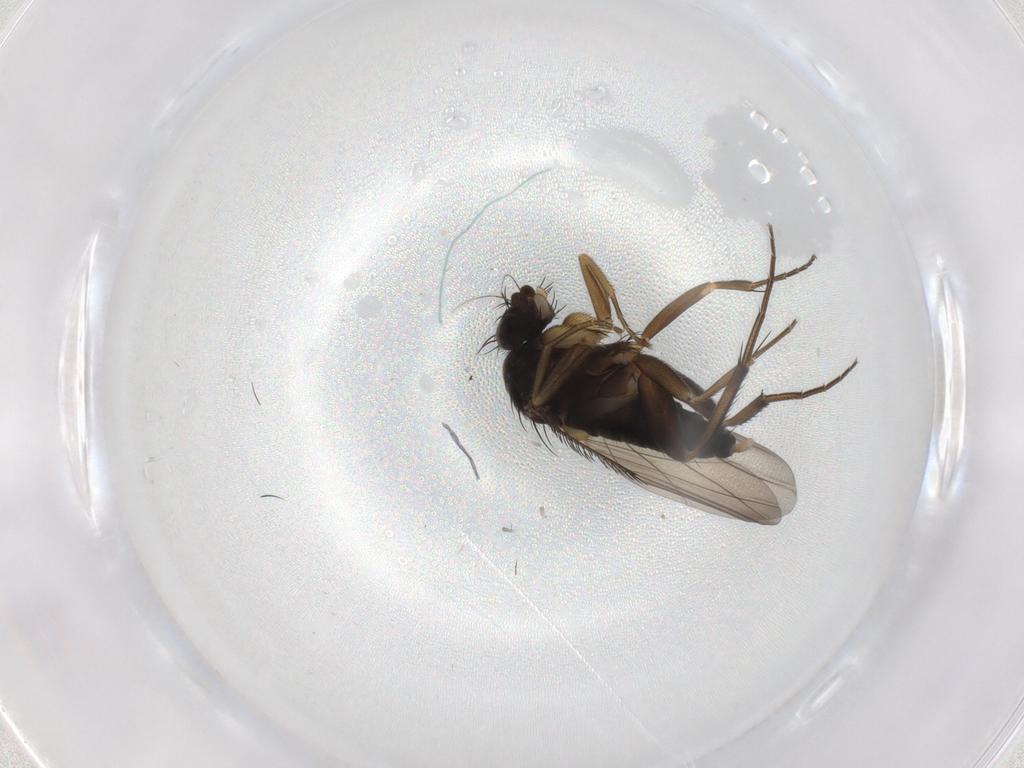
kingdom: Animalia
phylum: Arthropoda
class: Insecta
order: Diptera
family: Phoridae
